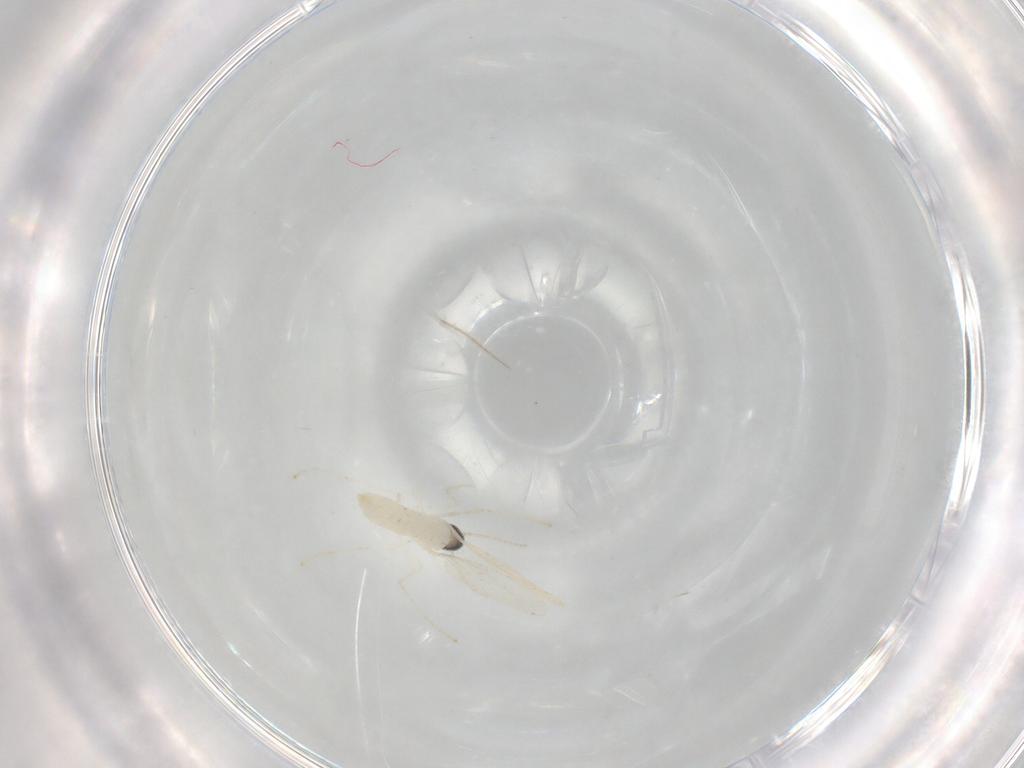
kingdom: Animalia
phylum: Arthropoda
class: Insecta
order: Diptera
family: Cecidomyiidae
